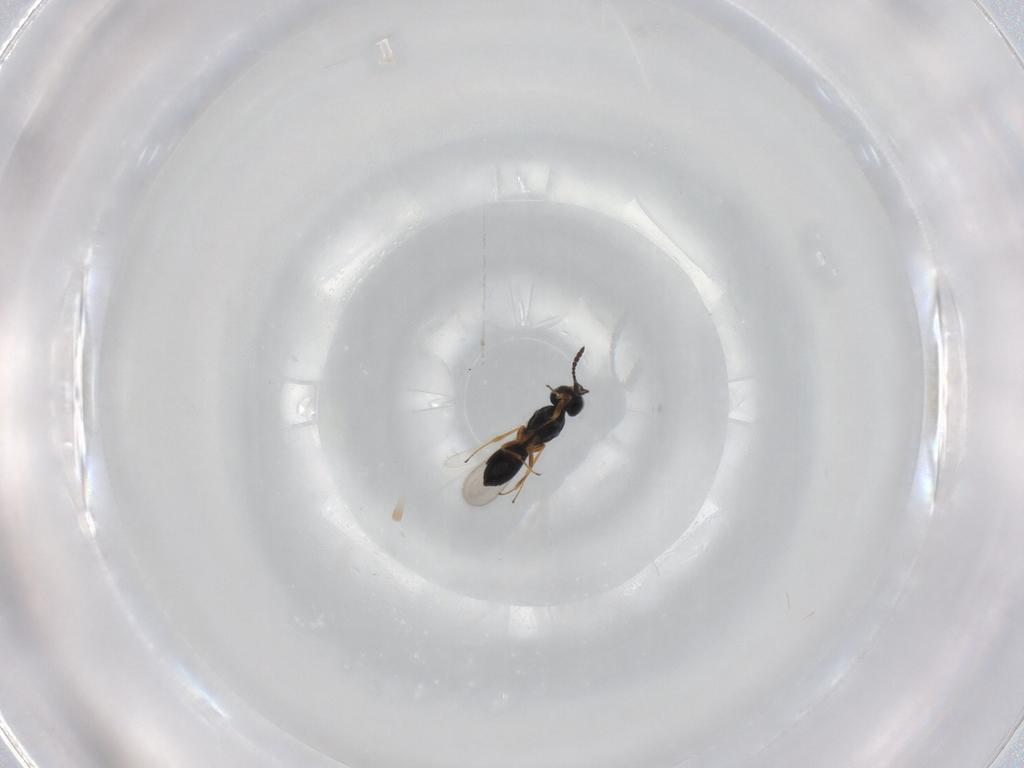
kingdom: Animalia
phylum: Arthropoda
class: Insecta
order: Hymenoptera
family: Scelionidae
